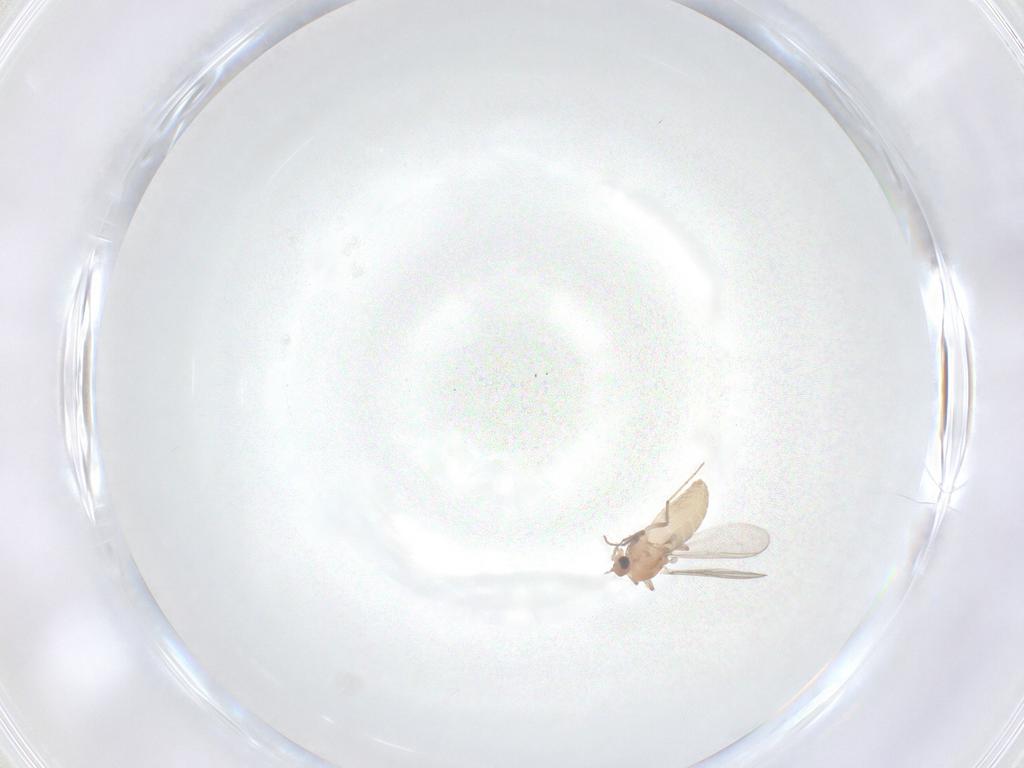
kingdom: Animalia
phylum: Arthropoda
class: Insecta
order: Diptera
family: Chironomidae
